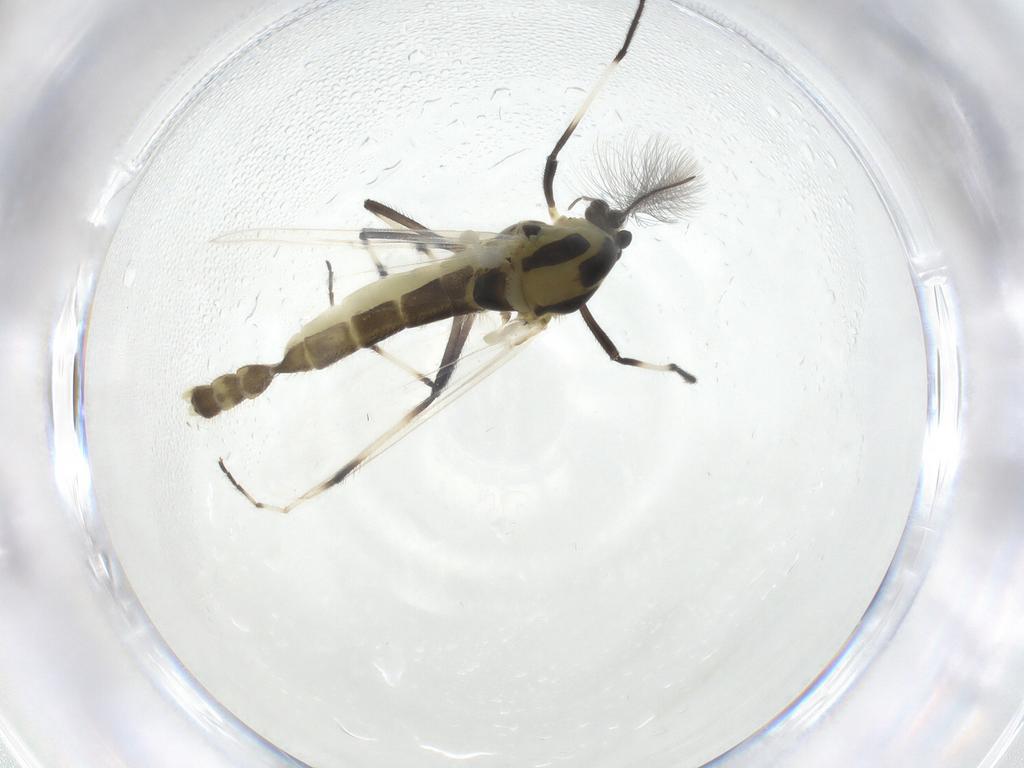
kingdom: Animalia
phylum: Arthropoda
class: Insecta
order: Diptera
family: Chironomidae
